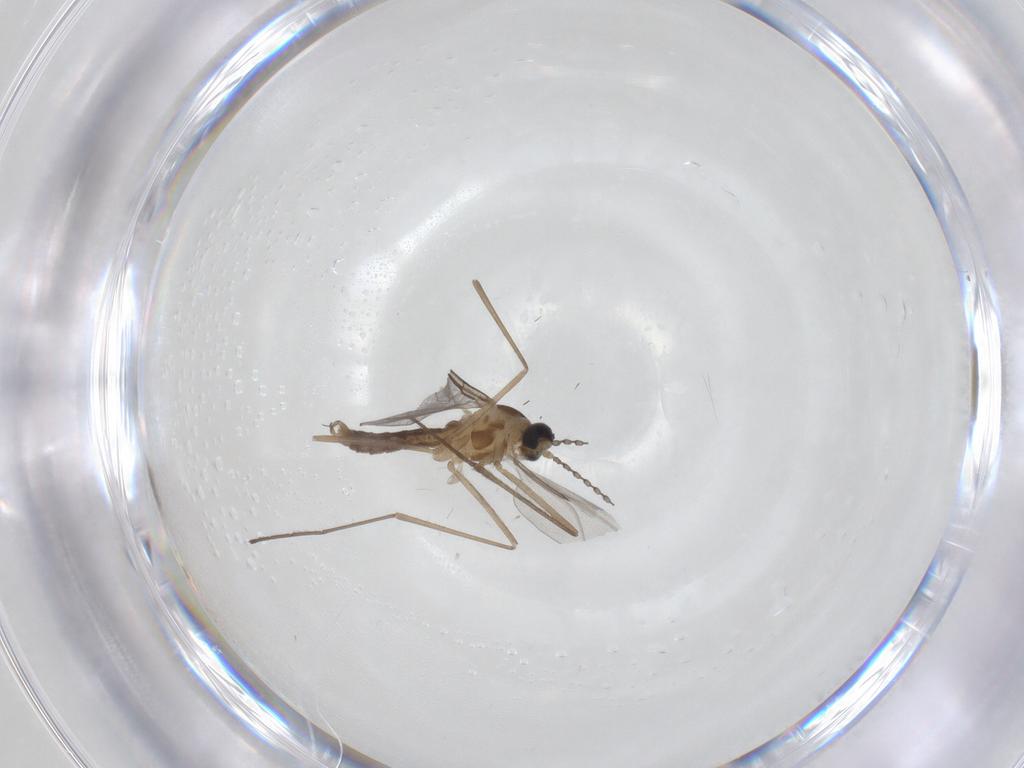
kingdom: Animalia
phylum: Arthropoda
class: Insecta
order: Diptera
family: Cecidomyiidae
